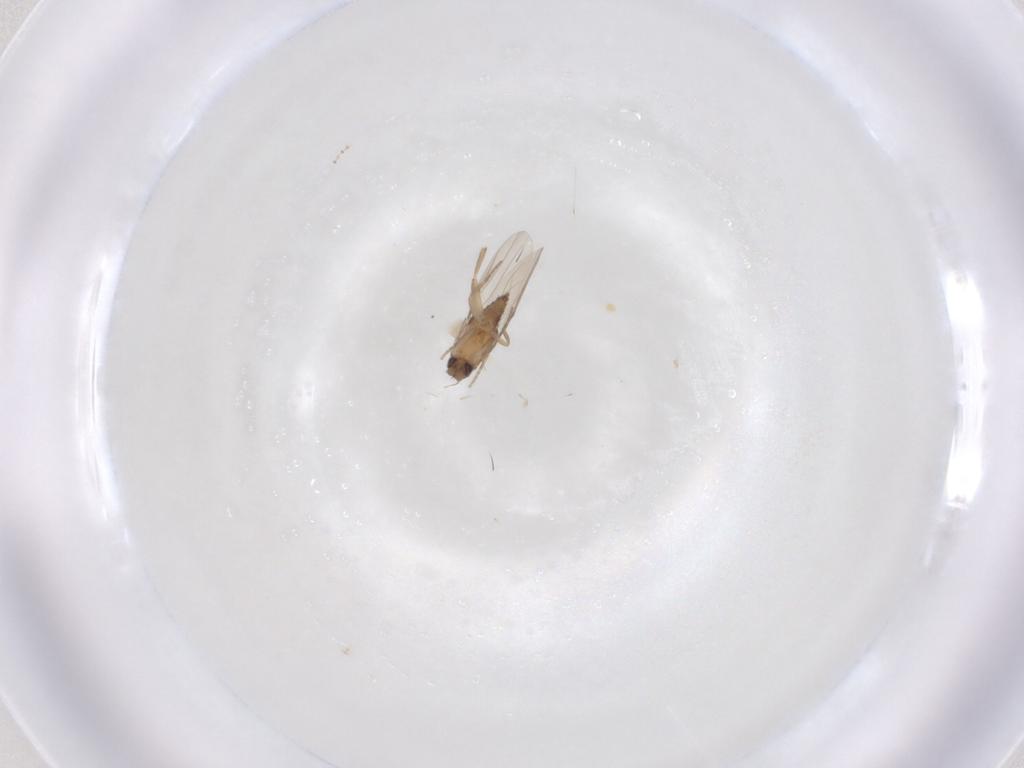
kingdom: Animalia
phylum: Arthropoda
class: Insecta
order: Diptera
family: Phoridae
